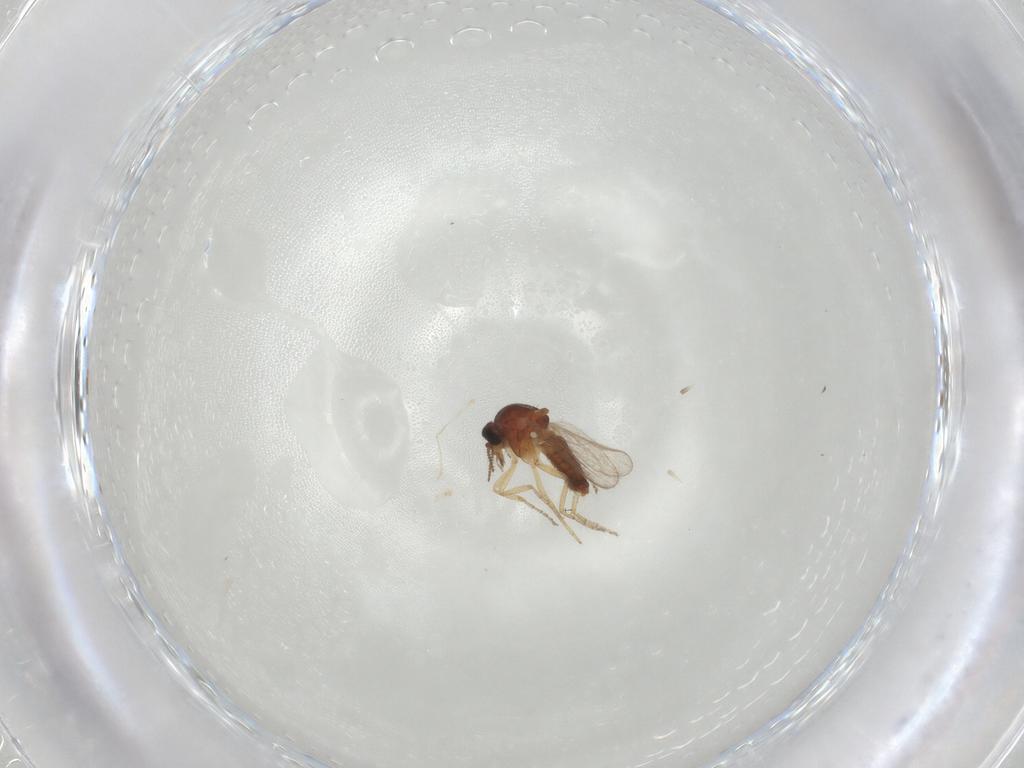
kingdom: Animalia
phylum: Arthropoda
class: Insecta
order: Diptera
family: Ceratopogonidae
